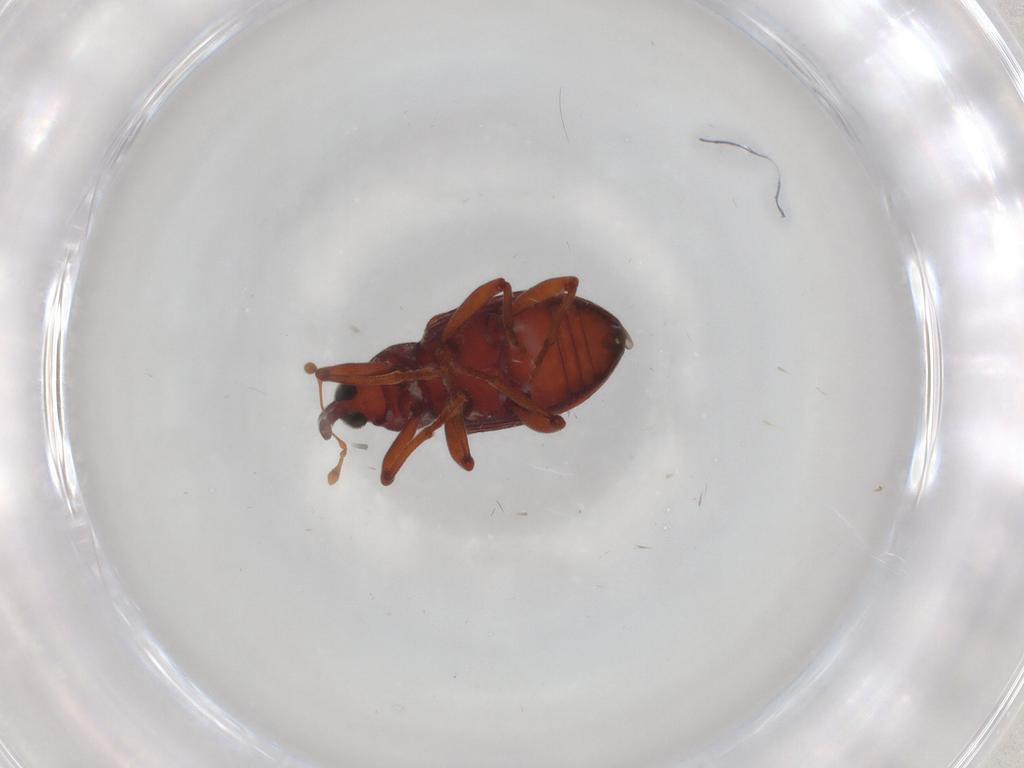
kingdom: Animalia
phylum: Arthropoda
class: Insecta
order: Coleoptera
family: Curculionidae
